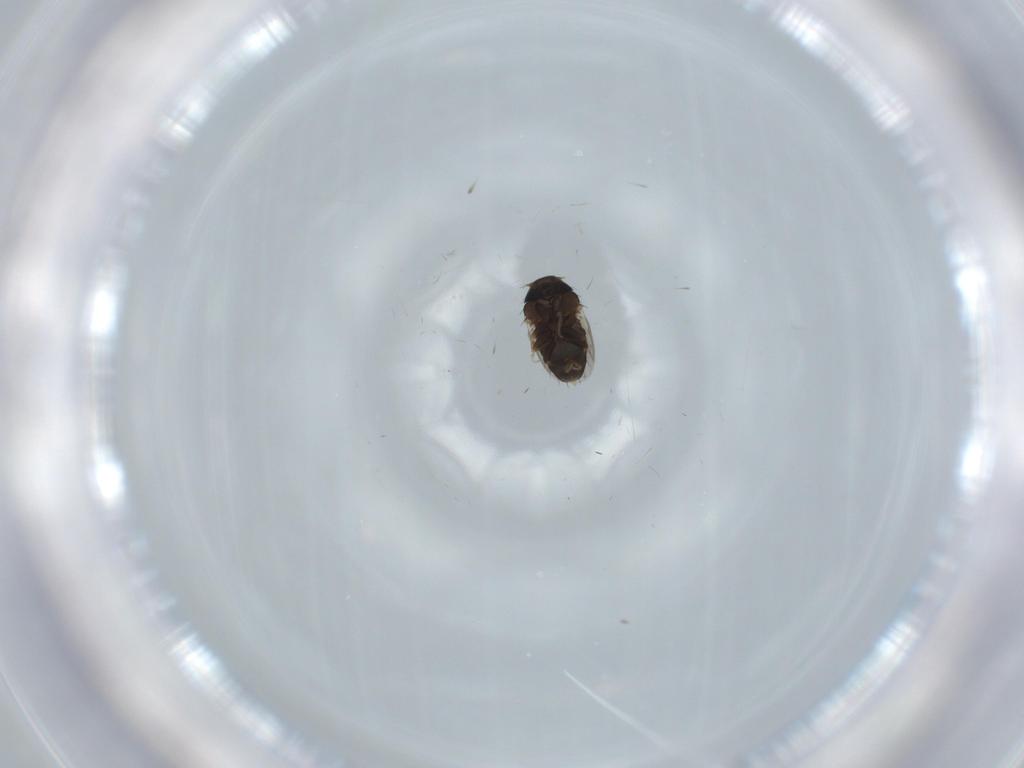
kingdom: Animalia
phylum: Arthropoda
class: Insecta
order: Diptera
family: Phoridae
